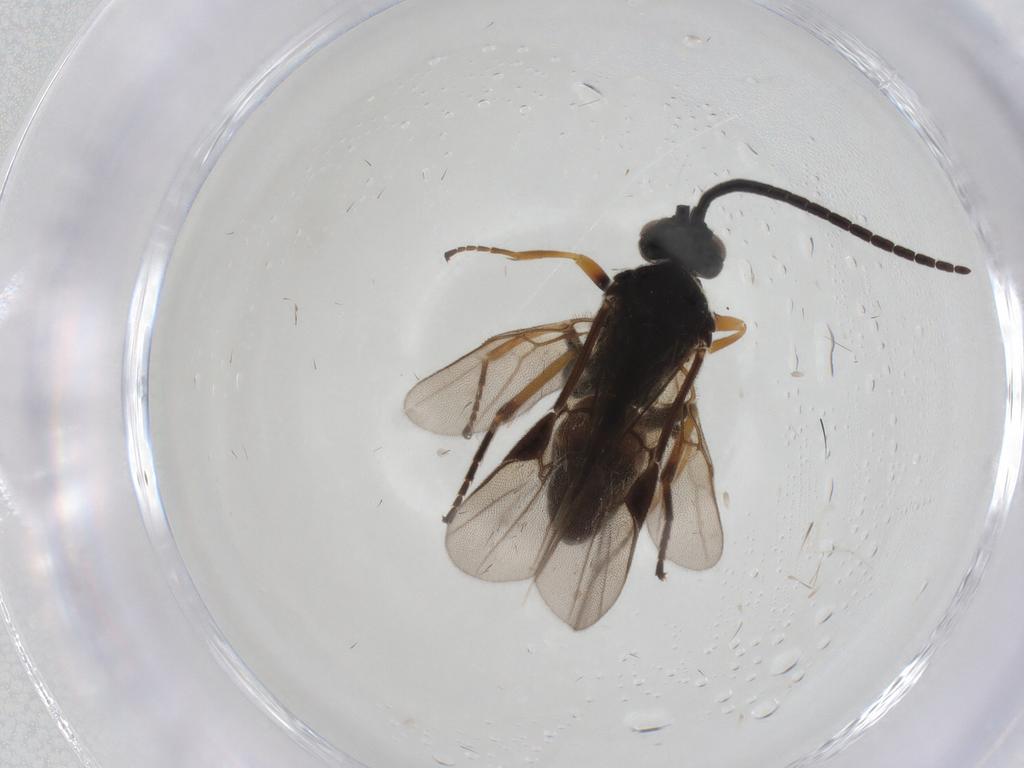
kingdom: Animalia
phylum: Arthropoda
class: Insecta
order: Hymenoptera
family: Braconidae
